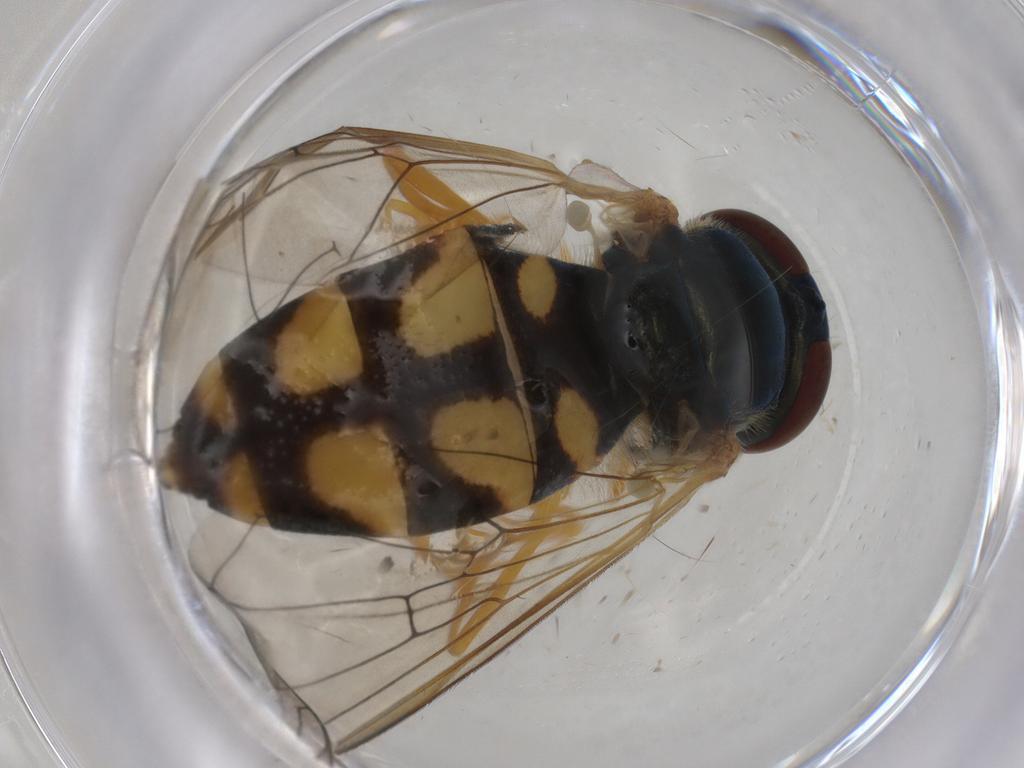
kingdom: Animalia
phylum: Arthropoda
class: Insecta
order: Diptera
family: Syrphidae
